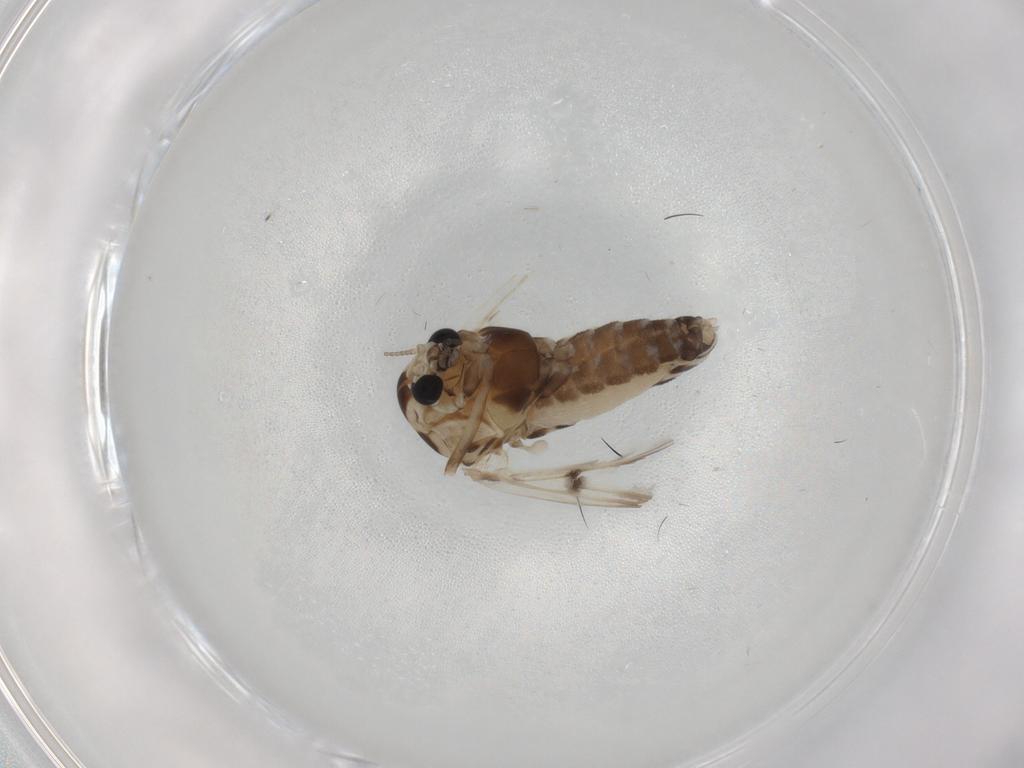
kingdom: Animalia
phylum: Arthropoda
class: Insecta
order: Diptera
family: Chironomidae
